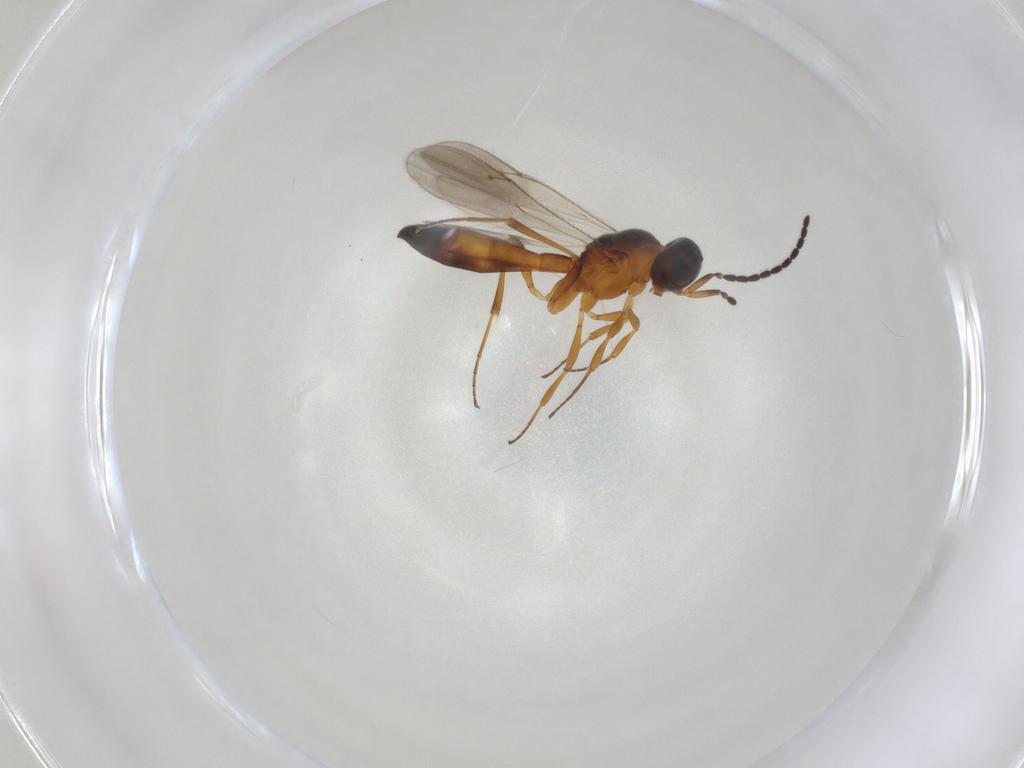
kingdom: Animalia
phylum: Arthropoda
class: Insecta
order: Hymenoptera
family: Scelionidae
